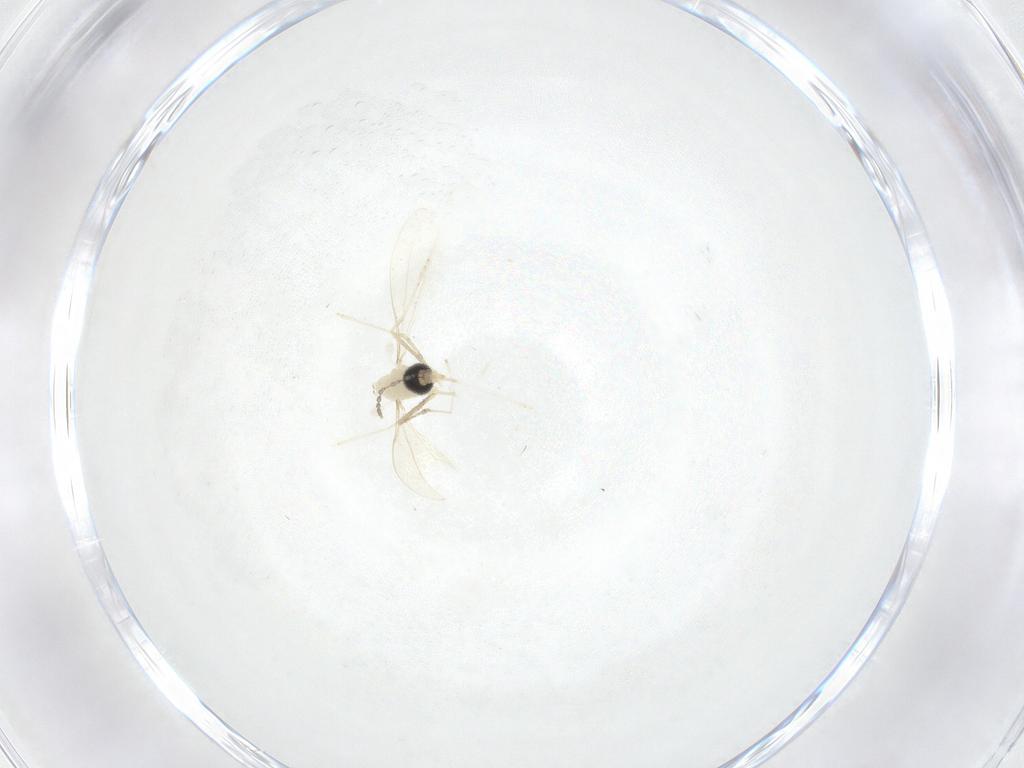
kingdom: Animalia
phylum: Arthropoda
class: Insecta
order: Diptera
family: Cecidomyiidae
